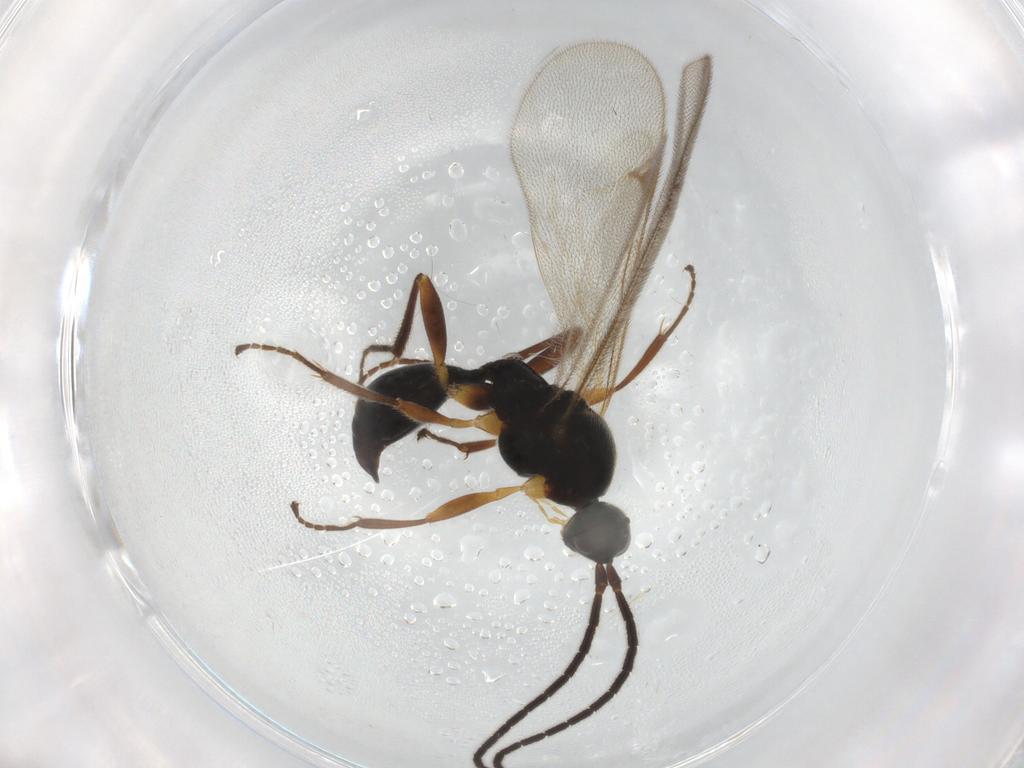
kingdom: Animalia
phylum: Arthropoda
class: Insecta
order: Hymenoptera
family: Proctotrupidae
